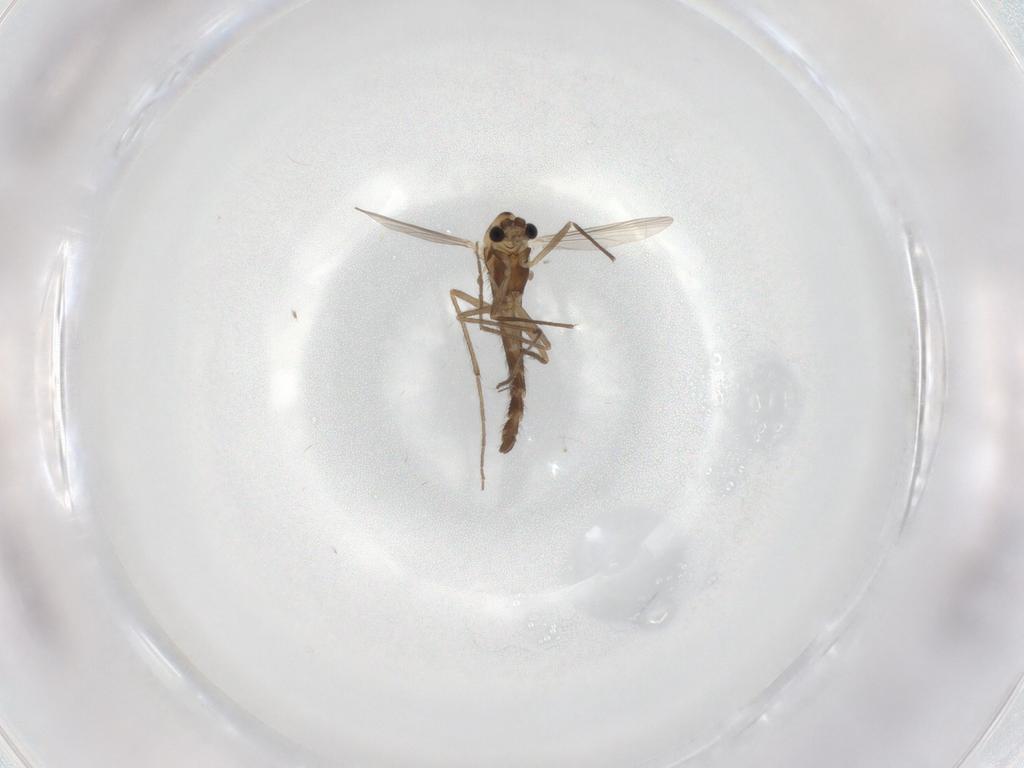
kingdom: Animalia
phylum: Arthropoda
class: Insecta
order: Diptera
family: Chironomidae
